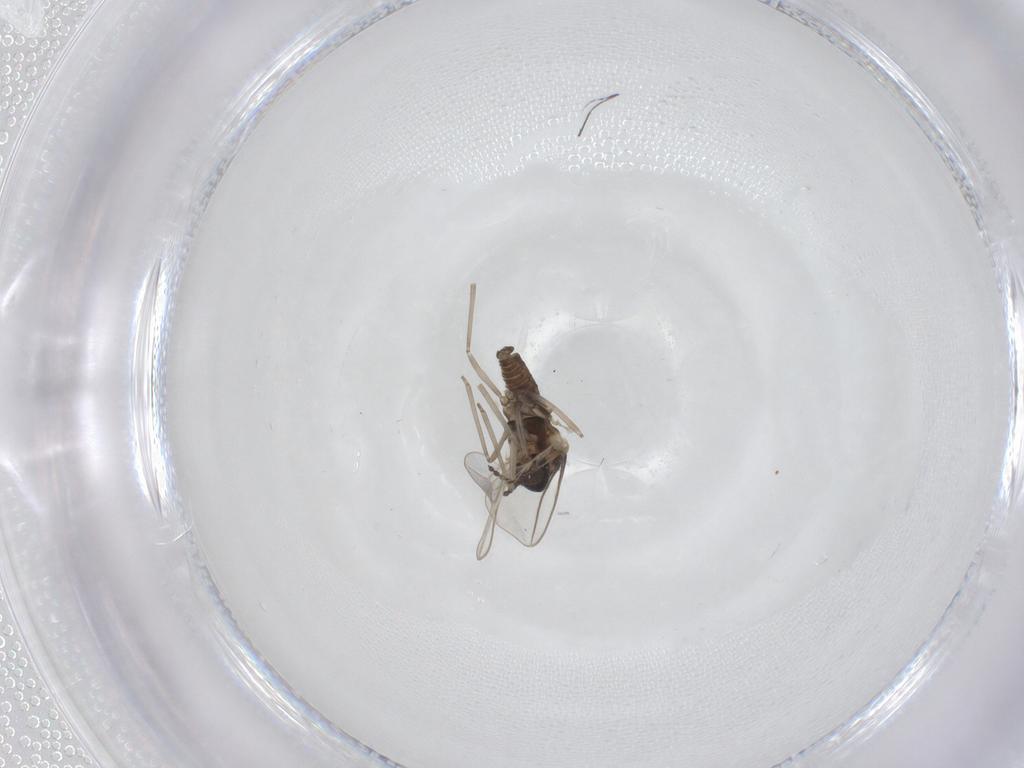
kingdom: Animalia
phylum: Arthropoda
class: Insecta
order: Diptera
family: Cecidomyiidae
